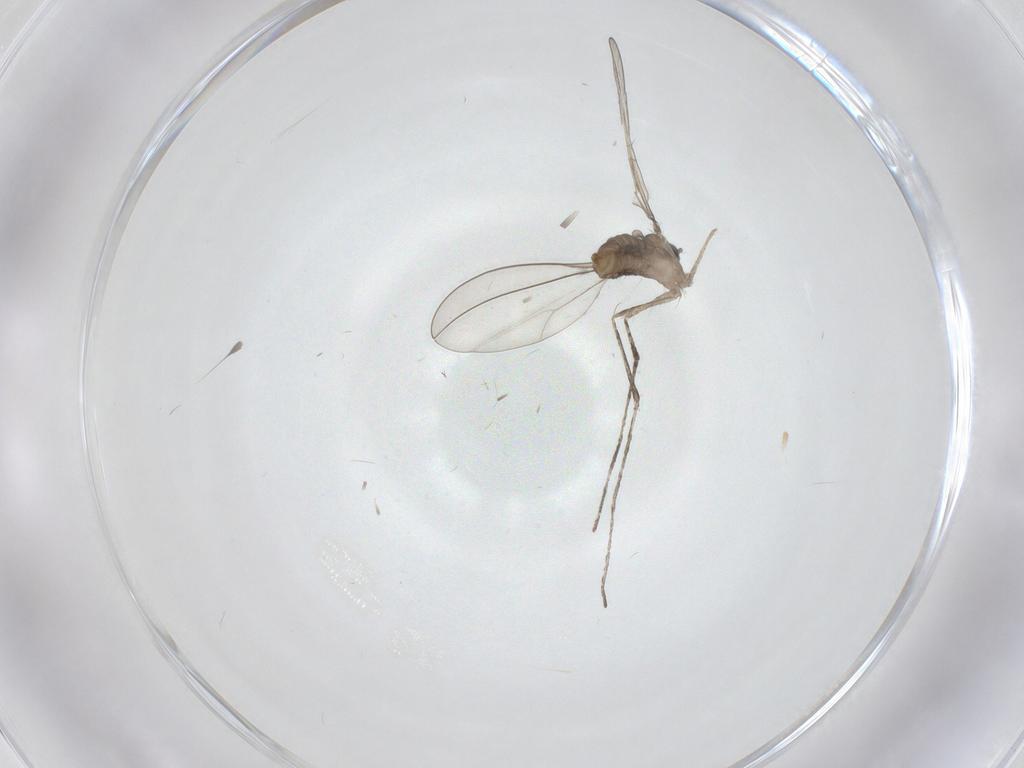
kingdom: Animalia
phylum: Arthropoda
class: Insecta
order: Diptera
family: Cecidomyiidae
